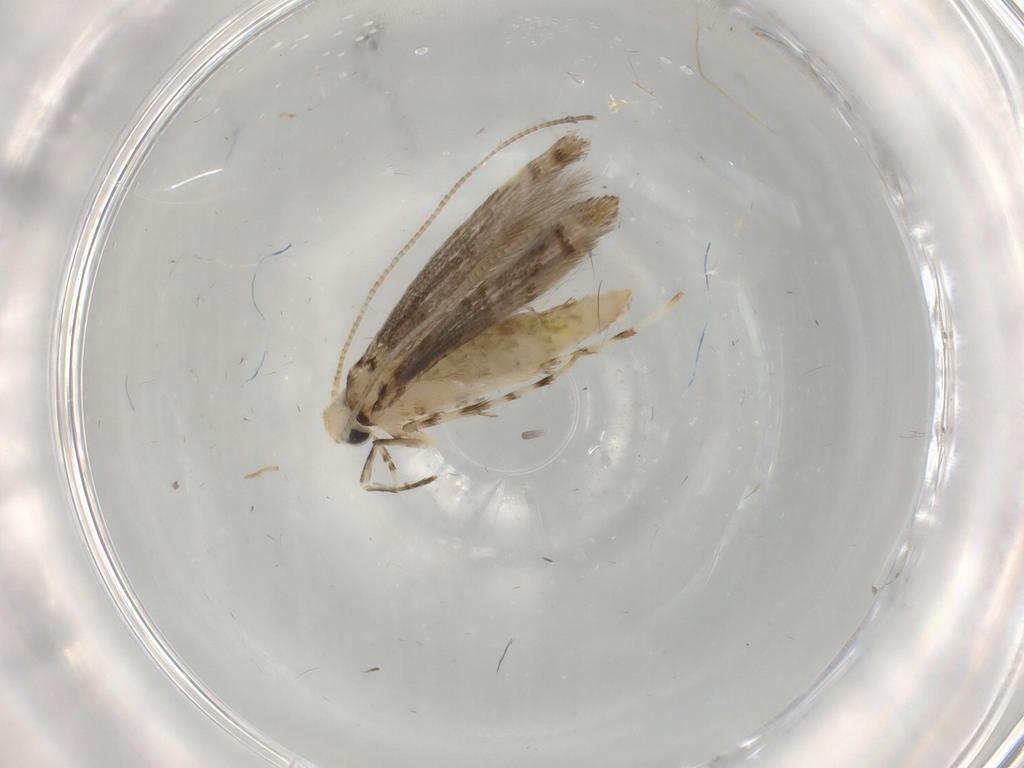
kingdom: Animalia
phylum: Arthropoda
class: Insecta
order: Lepidoptera
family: Gracillariidae
